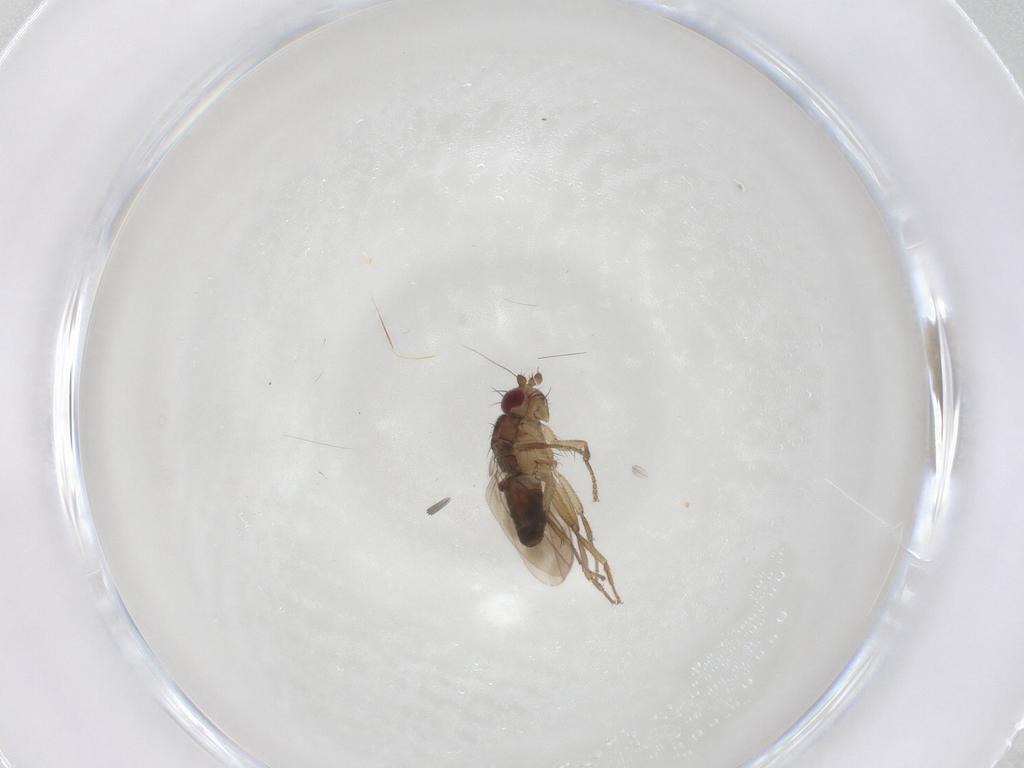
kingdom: Animalia
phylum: Arthropoda
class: Insecta
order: Diptera
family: Sphaeroceridae
